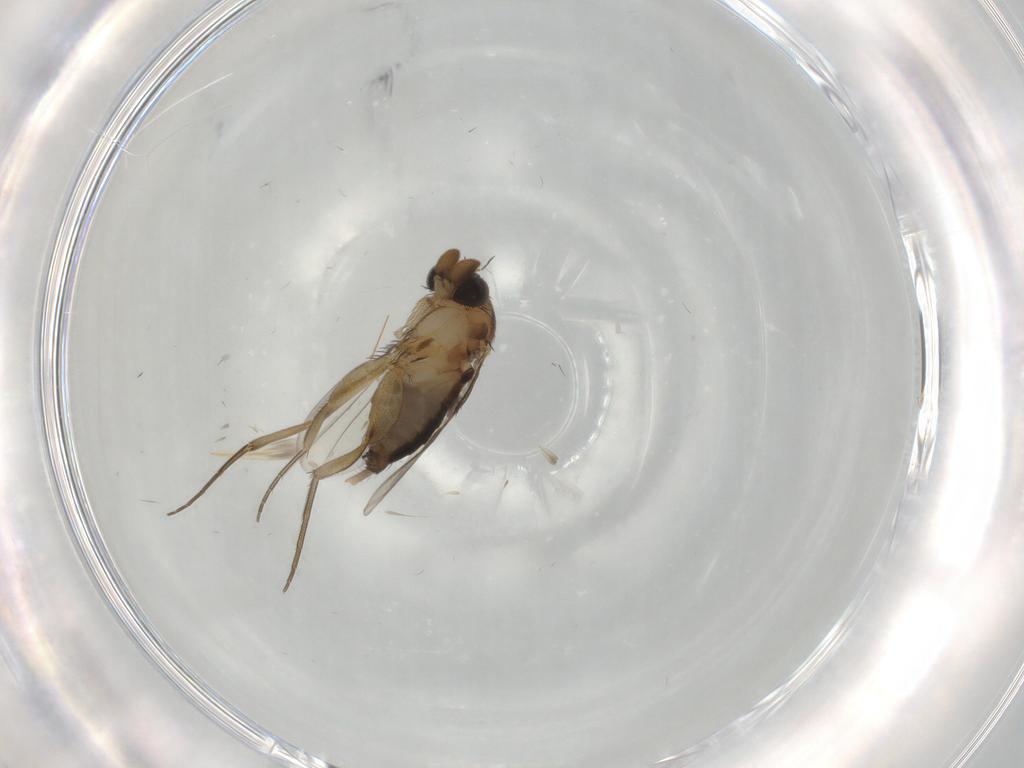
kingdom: Animalia
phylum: Arthropoda
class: Insecta
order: Diptera
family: Phoridae
